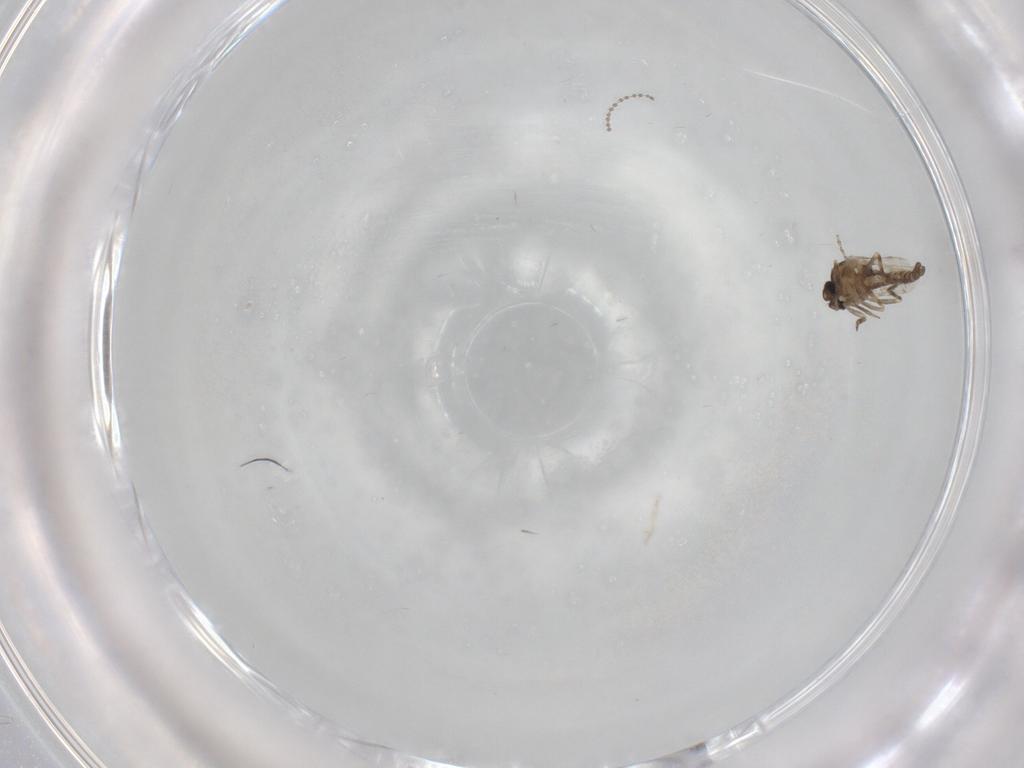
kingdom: Animalia
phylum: Arthropoda
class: Insecta
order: Diptera
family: Ceratopogonidae
